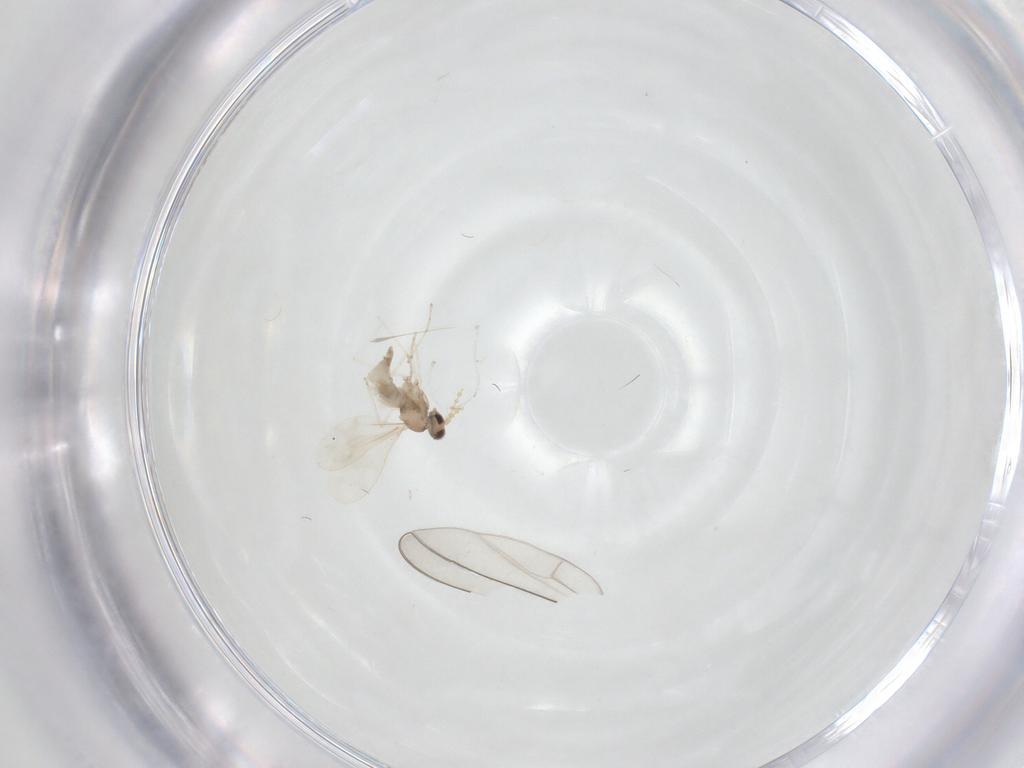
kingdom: Animalia
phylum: Arthropoda
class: Insecta
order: Diptera
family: Cecidomyiidae
